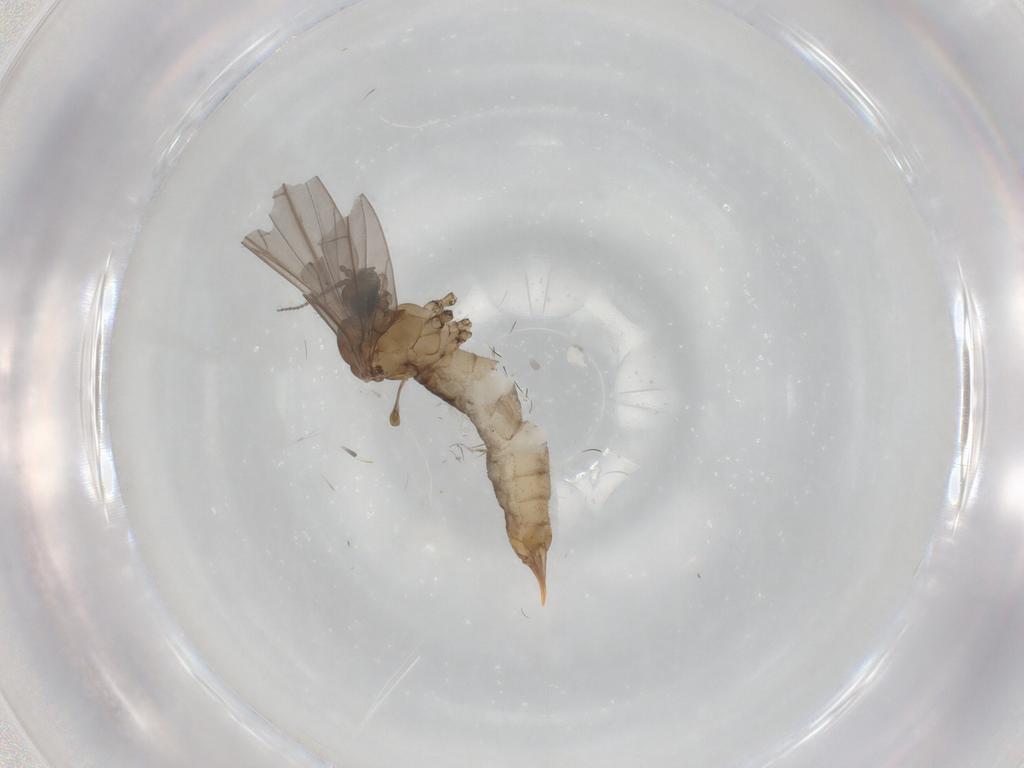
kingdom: Animalia
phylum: Arthropoda
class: Insecta
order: Diptera
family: Limoniidae
